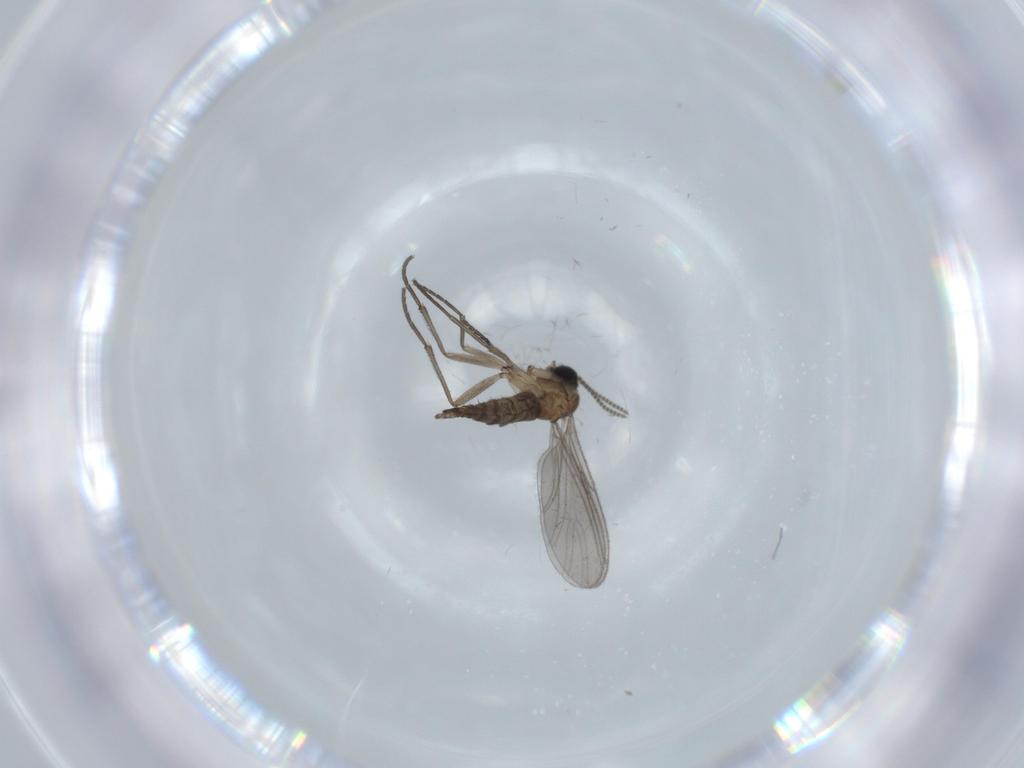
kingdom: Animalia
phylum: Arthropoda
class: Insecta
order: Diptera
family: Sciaridae
